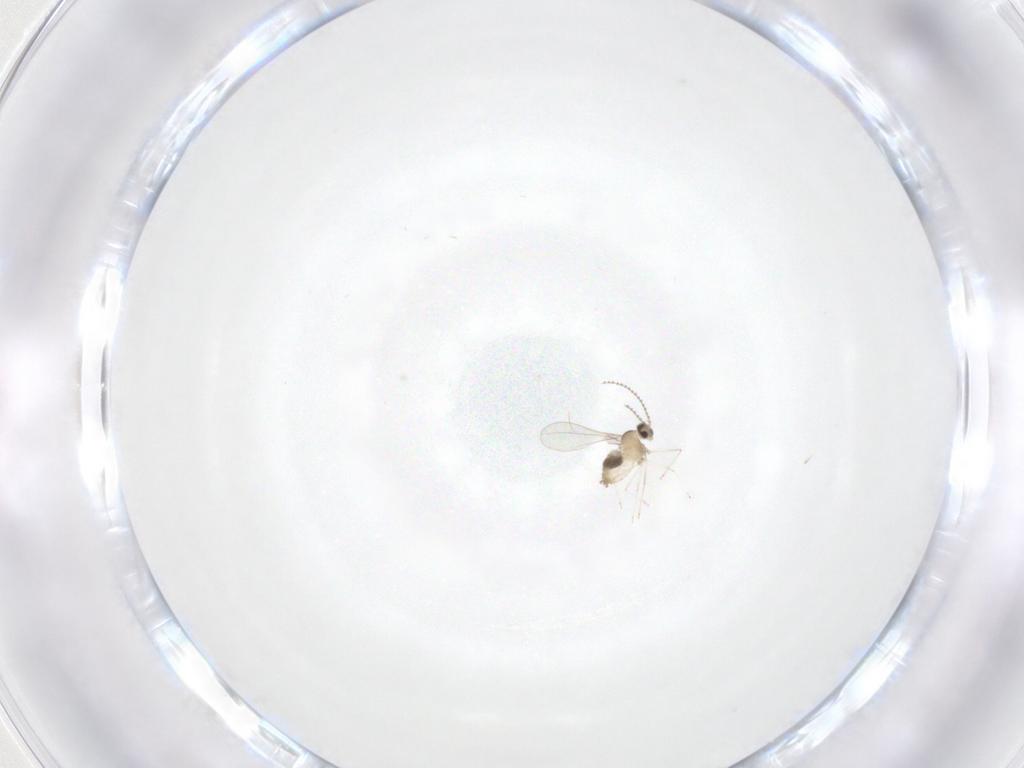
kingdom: Animalia
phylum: Arthropoda
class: Insecta
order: Diptera
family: Cecidomyiidae
